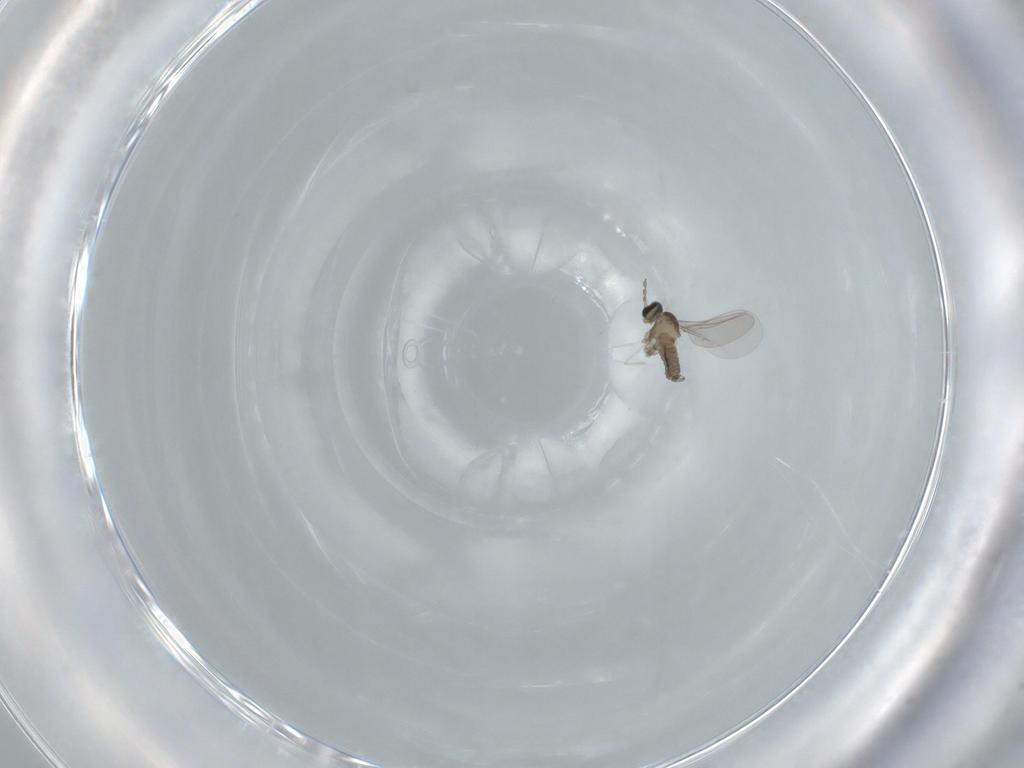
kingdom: Animalia
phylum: Arthropoda
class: Insecta
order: Diptera
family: Cecidomyiidae
